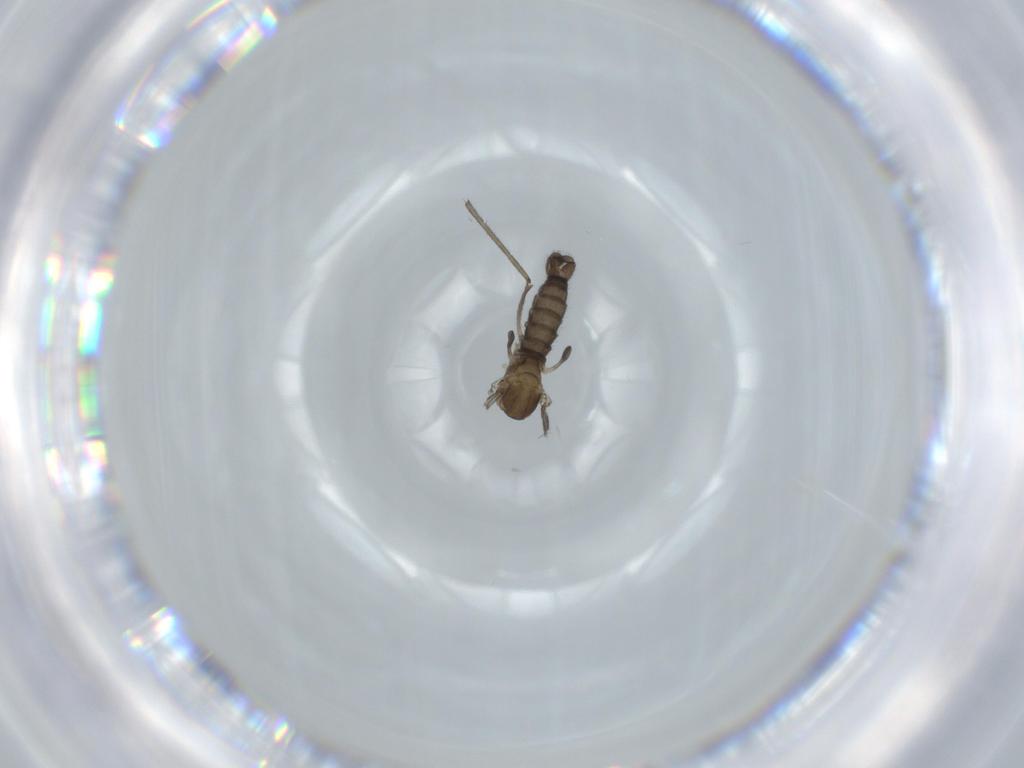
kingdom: Animalia
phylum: Arthropoda
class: Insecta
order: Diptera
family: Sciaridae
